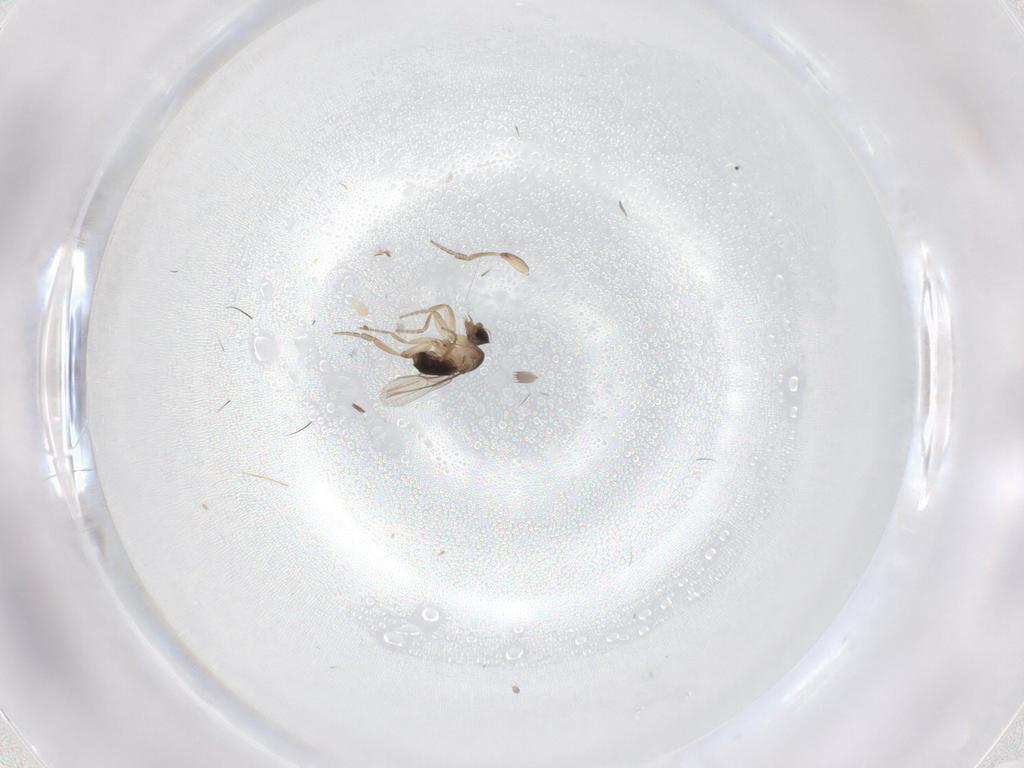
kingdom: Animalia
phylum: Arthropoda
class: Insecta
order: Diptera
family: Phoridae
